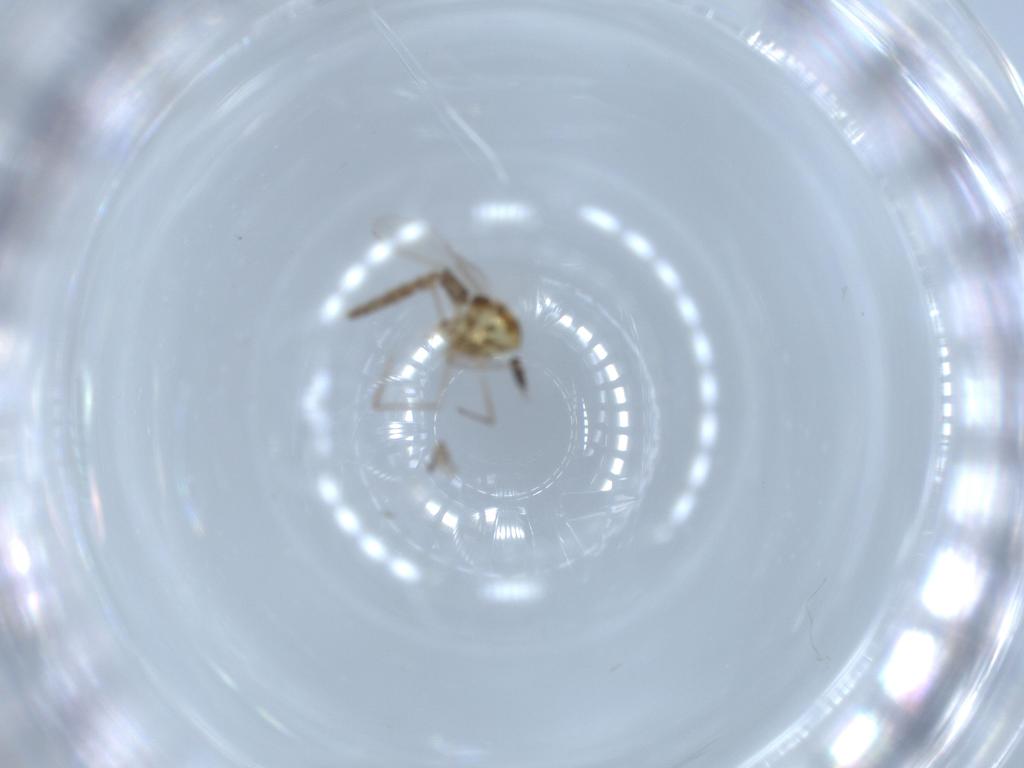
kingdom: Animalia
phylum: Arthropoda
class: Insecta
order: Diptera
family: Chironomidae
